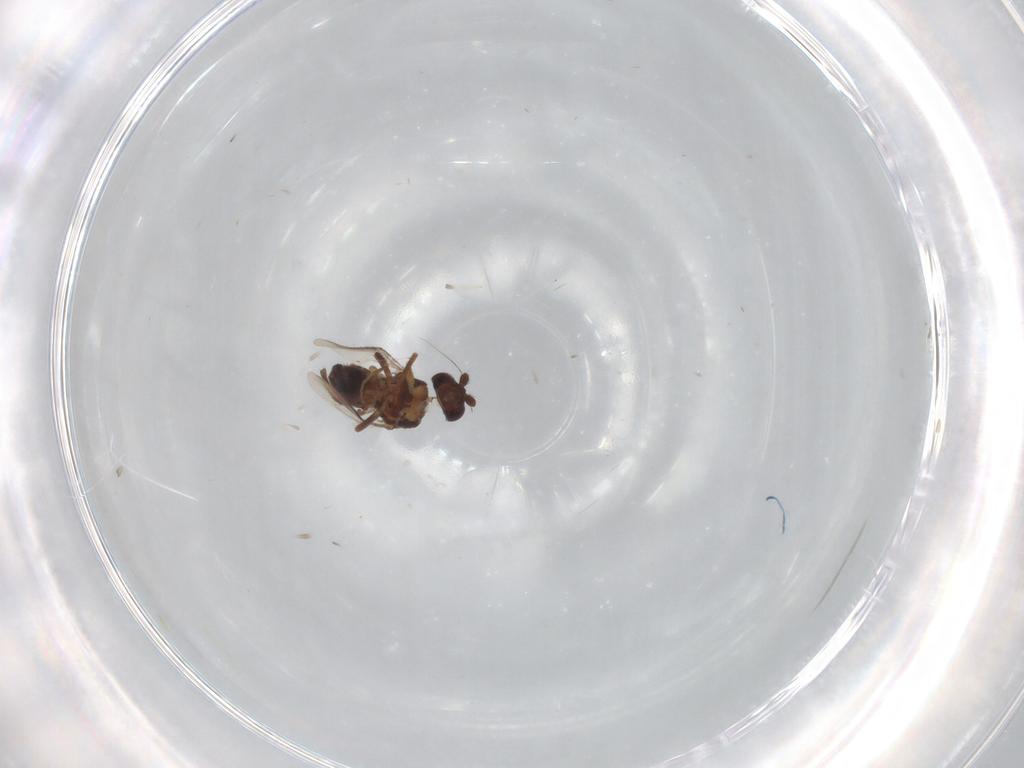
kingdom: Animalia
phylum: Arthropoda
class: Insecta
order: Diptera
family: Sphaeroceridae
